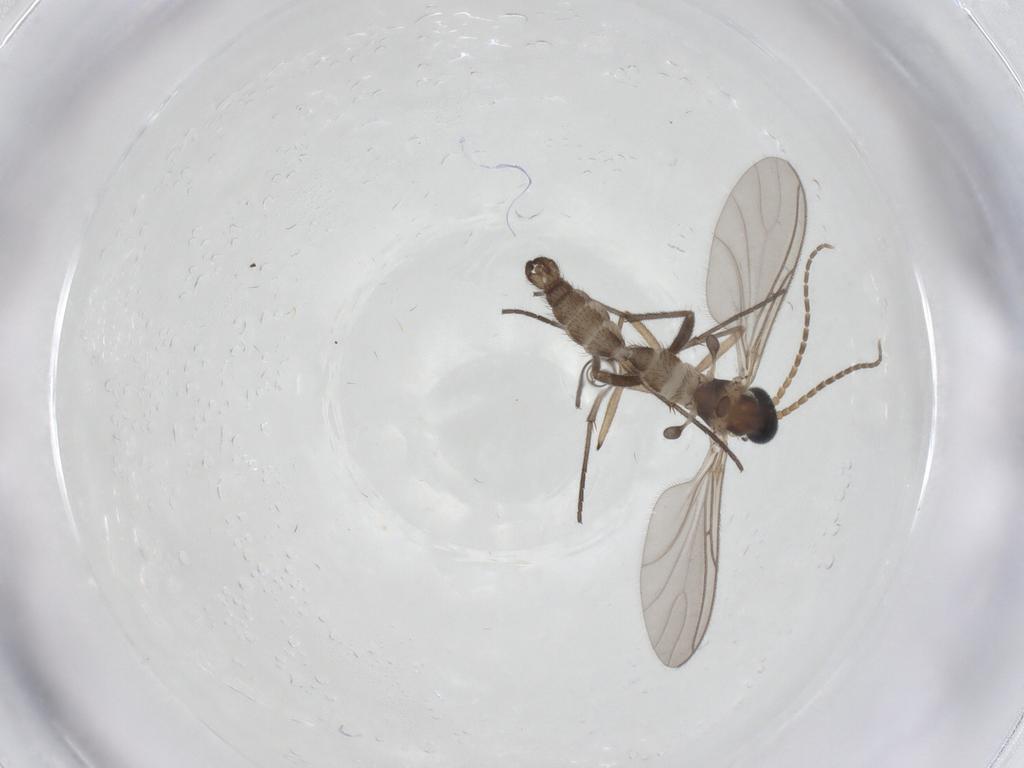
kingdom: Animalia
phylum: Arthropoda
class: Insecta
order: Diptera
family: Sciaridae
